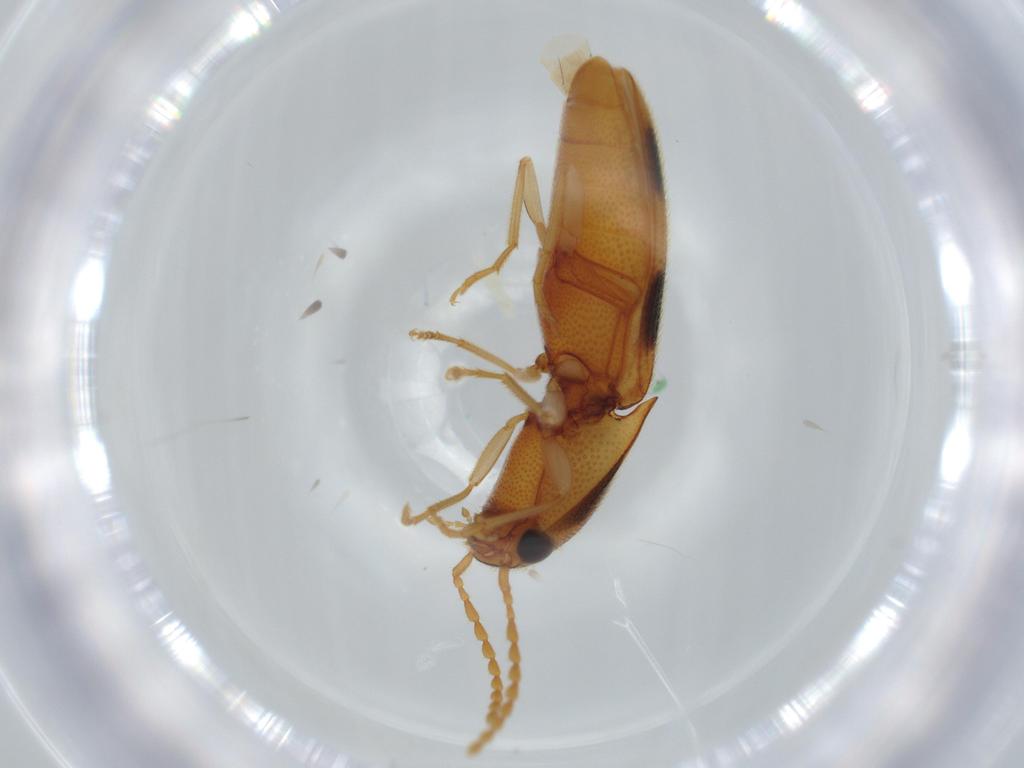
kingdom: Animalia
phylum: Arthropoda
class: Insecta
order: Coleoptera
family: Elateridae
